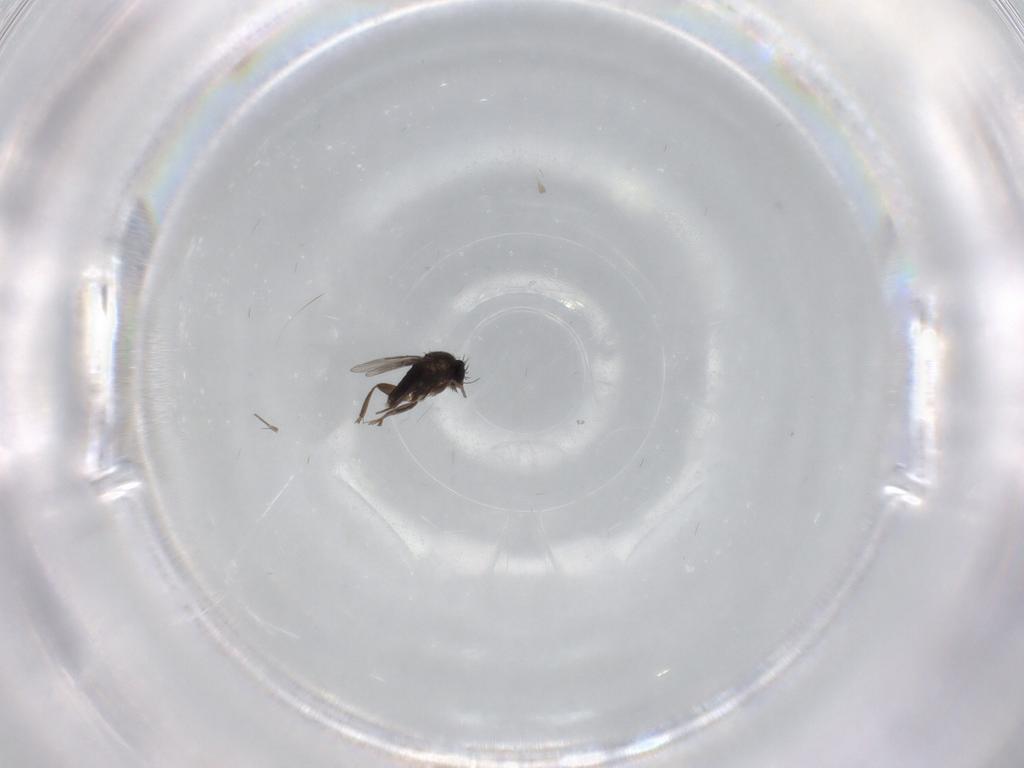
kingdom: Animalia
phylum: Arthropoda
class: Insecta
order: Diptera
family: Phoridae
